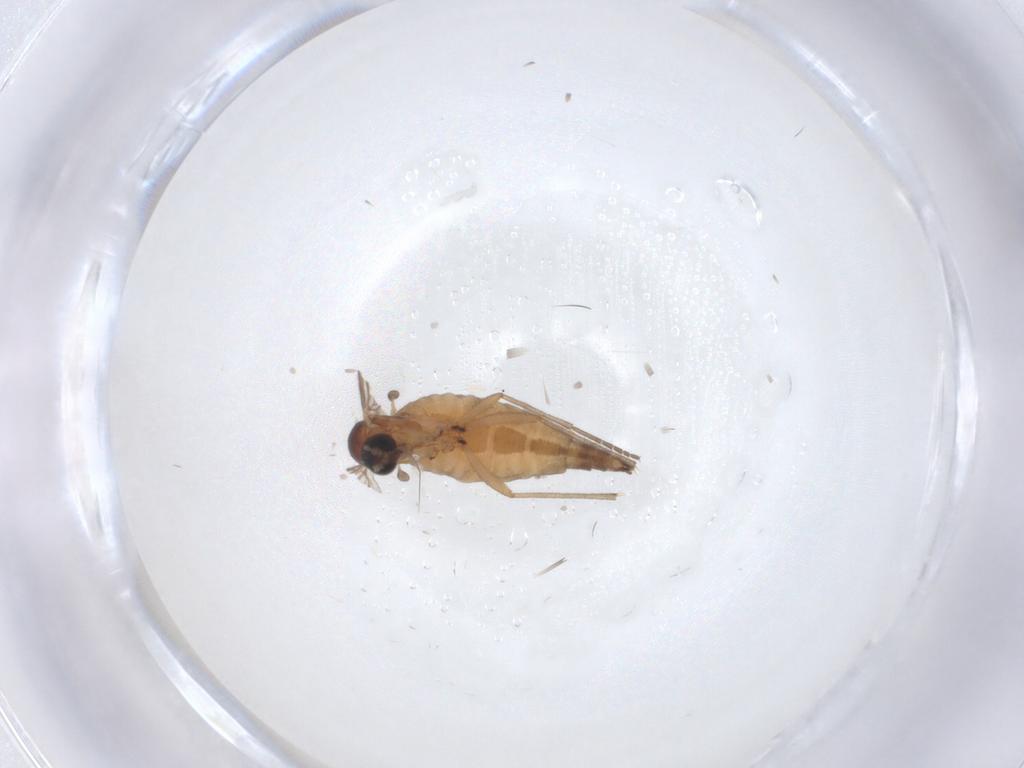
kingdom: Animalia
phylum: Arthropoda
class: Insecta
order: Diptera
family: Sciaridae
